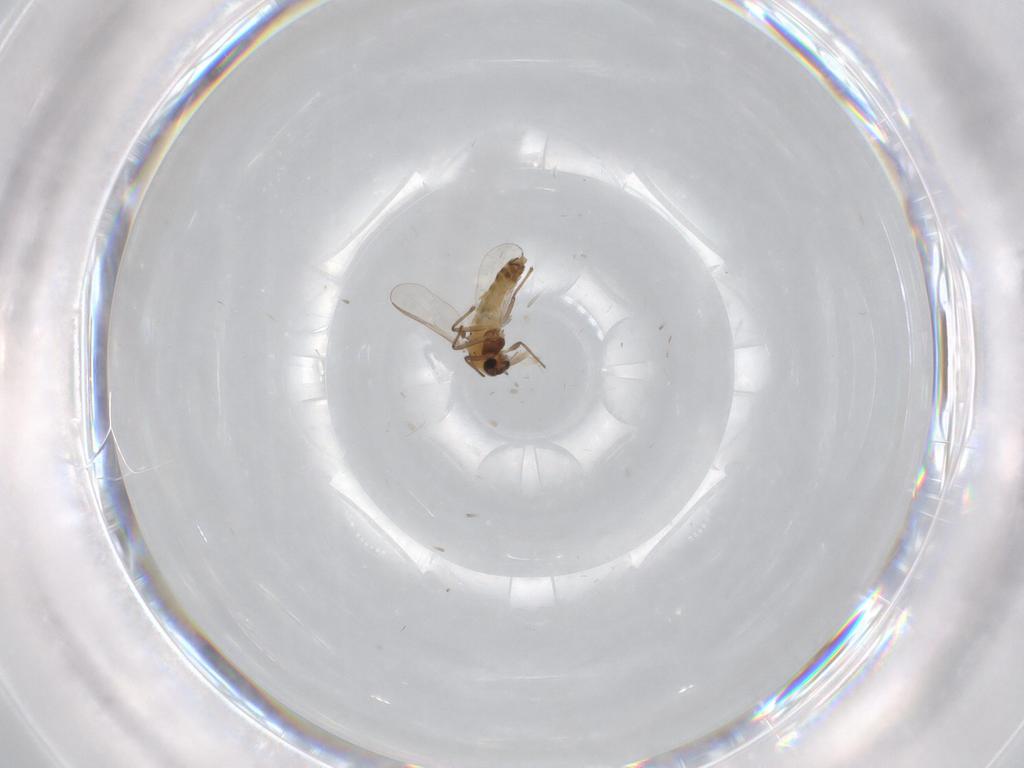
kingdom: Animalia
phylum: Arthropoda
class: Insecta
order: Diptera
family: Chironomidae
